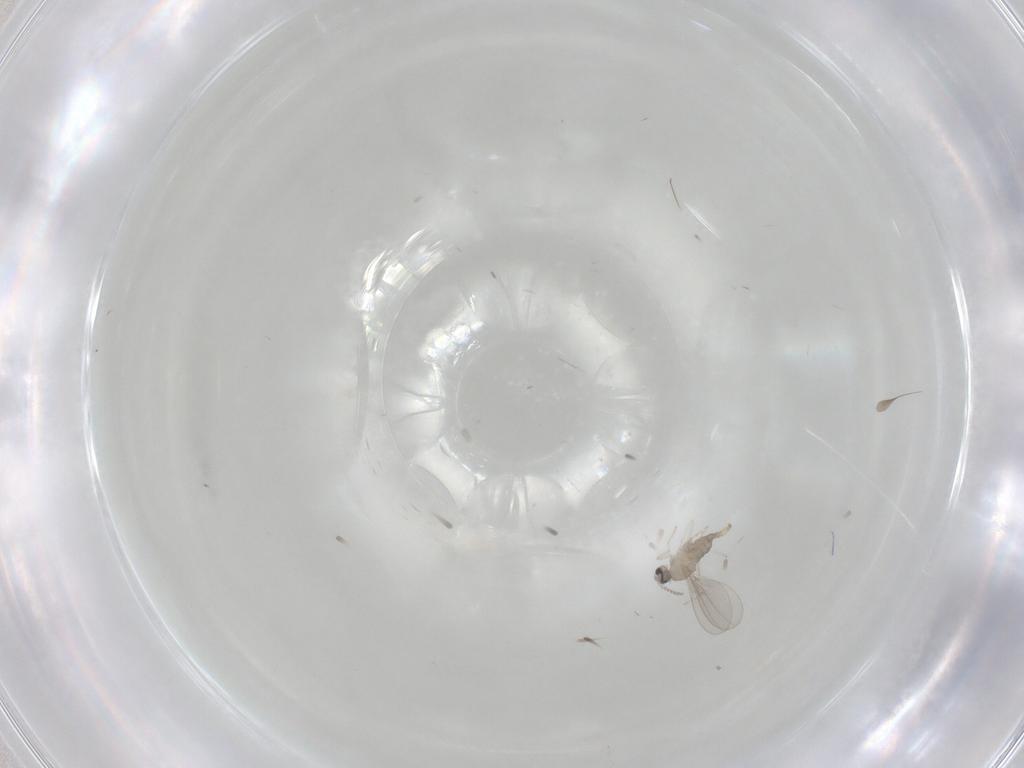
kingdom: Animalia
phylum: Arthropoda
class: Insecta
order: Diptera
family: Cecidomyiidae
